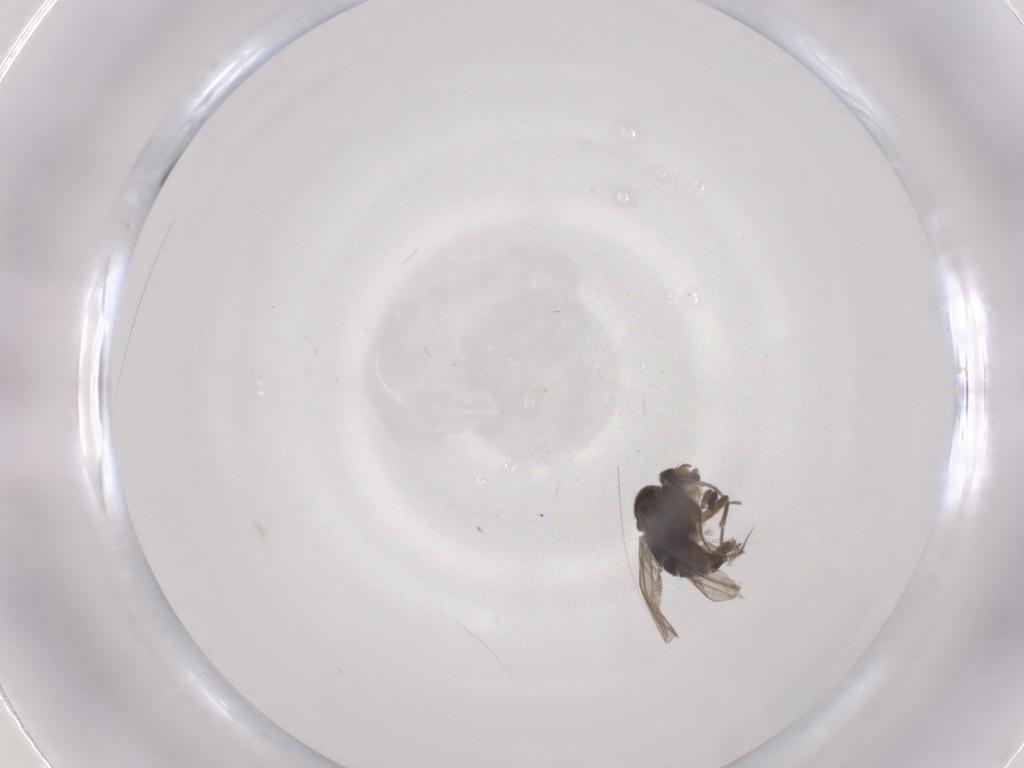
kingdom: Animalia
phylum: Arthropoda
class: Insecta
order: Diptera
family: Chironomidae
